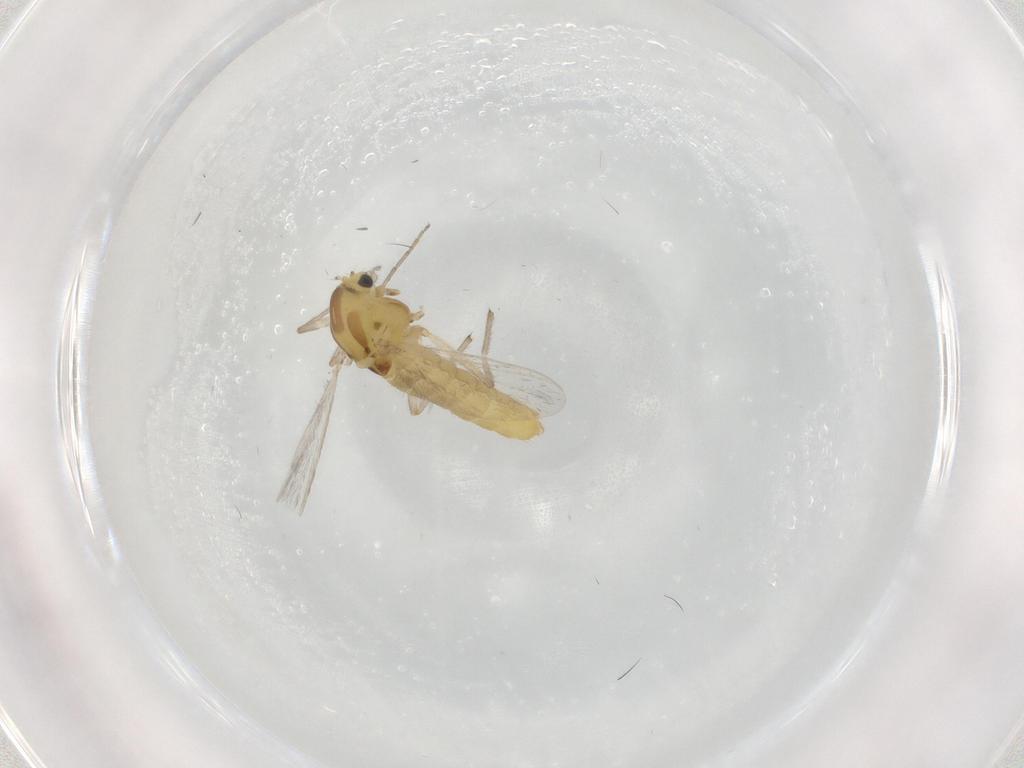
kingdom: Animalia
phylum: Arthropoda
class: Insecta
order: Diptera
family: Chironomidae
